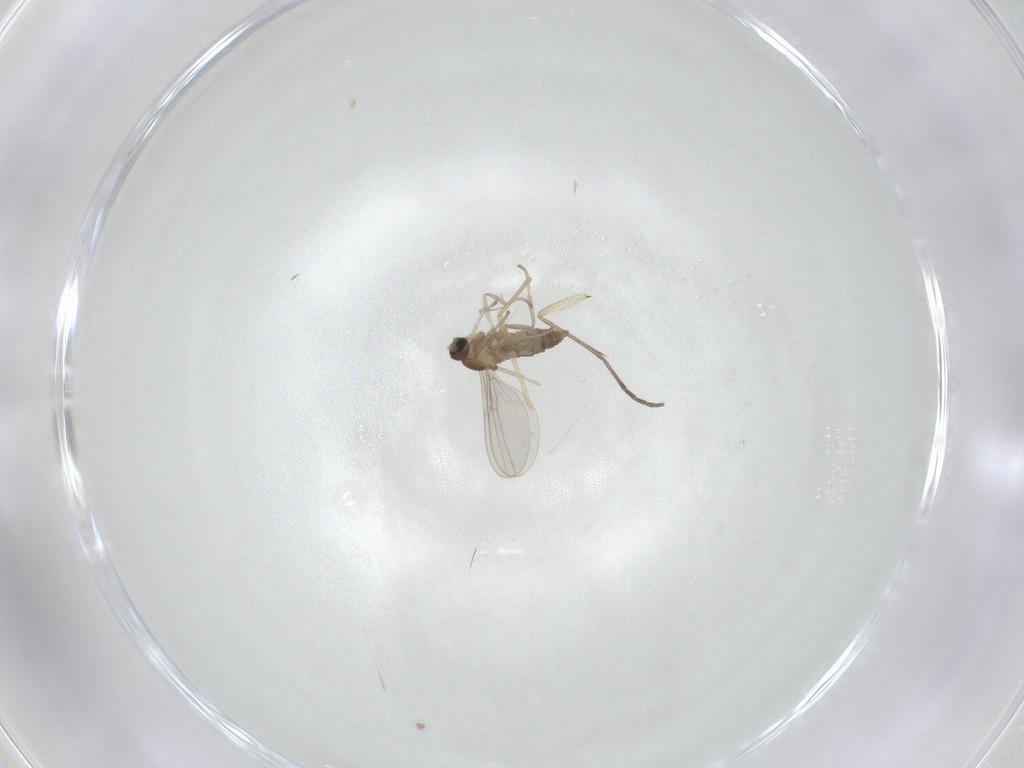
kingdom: Animalia
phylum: Arthropoda
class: Insecta
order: Diptera
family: Cecidomyiidae
